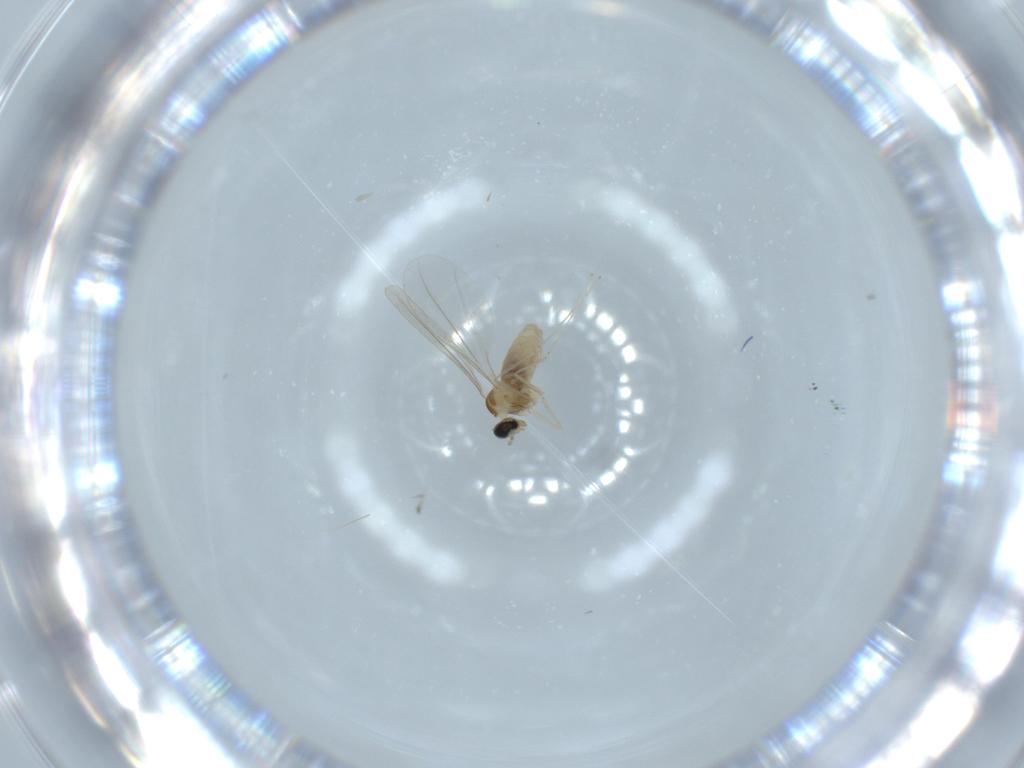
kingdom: Animalia
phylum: Arthropoda
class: Insecta
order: Diptera
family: Cecidomyiidae
